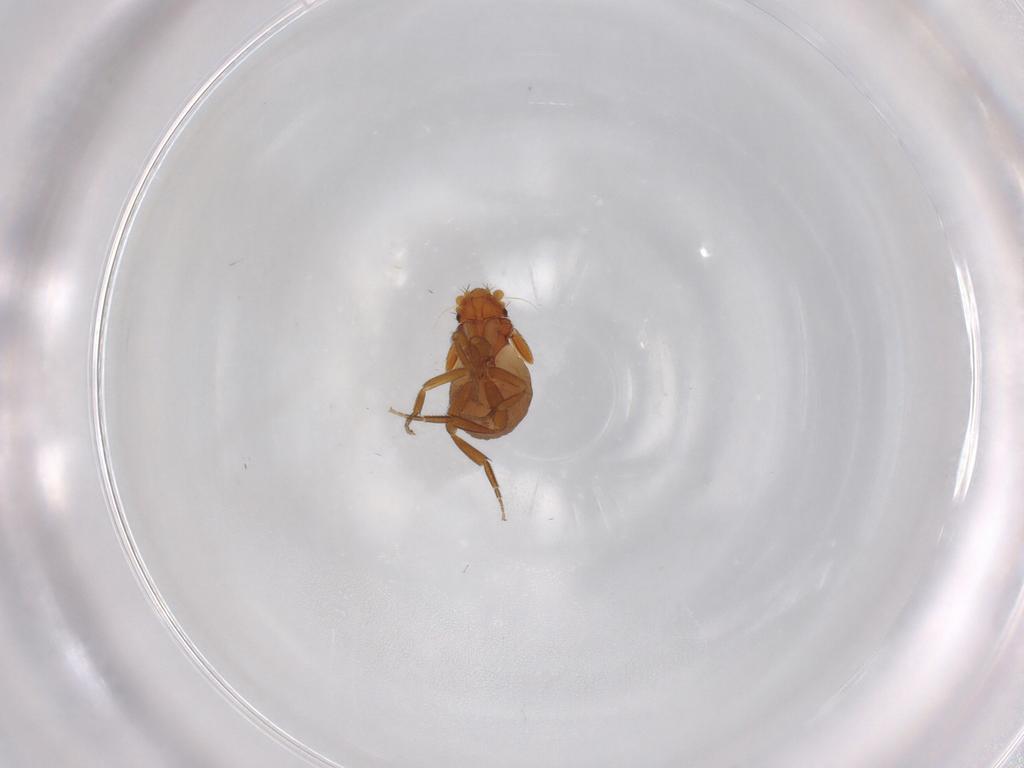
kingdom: Animalia
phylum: Arthropoda
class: Insecta
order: Diptera
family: Phoridae
